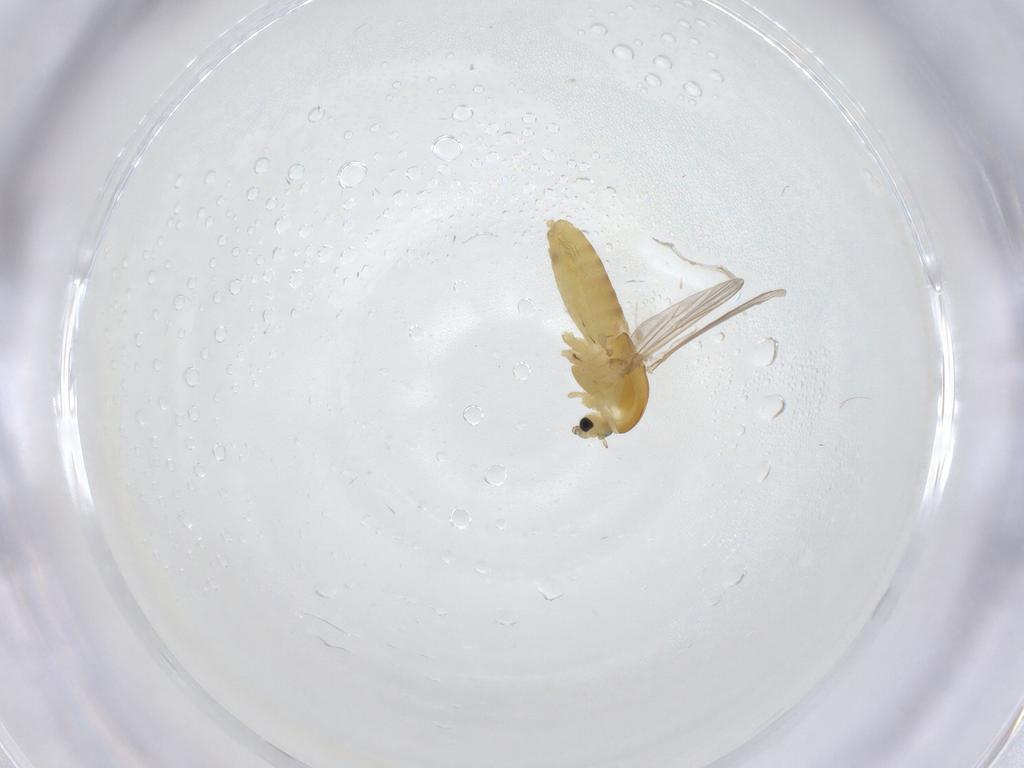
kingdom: Animalia
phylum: Arthropoda
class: Insecta
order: Diptera
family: Chironomidae
